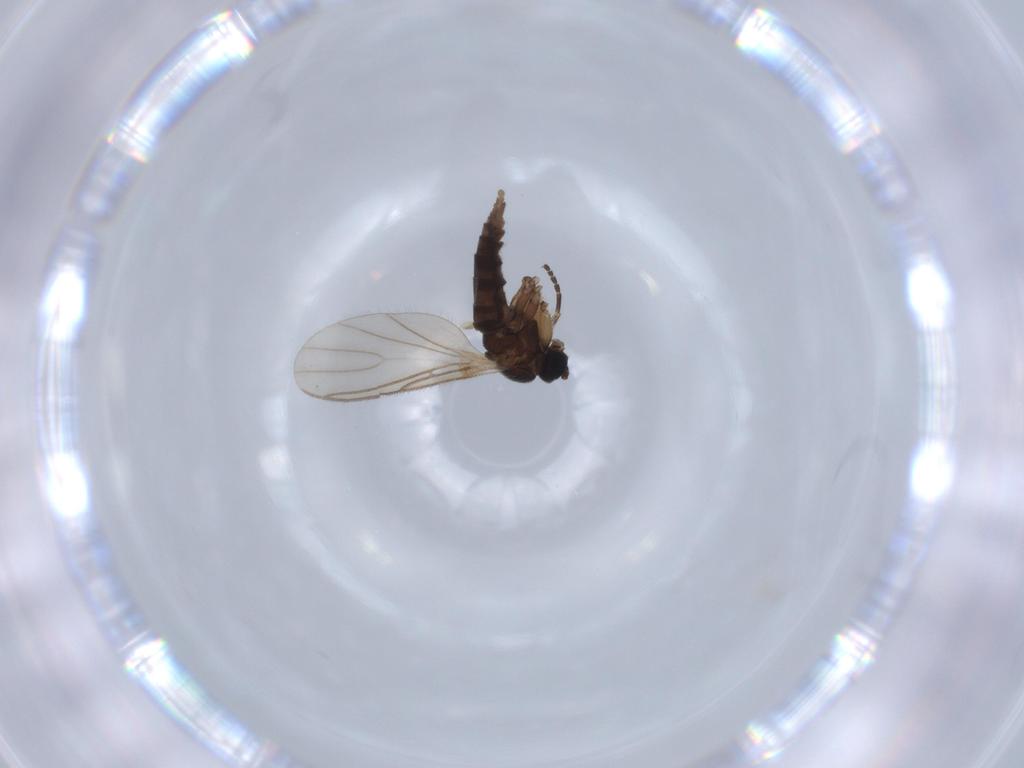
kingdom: Animalia
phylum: Arthropoda
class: Insecta
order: Diptera
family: Sciaridae
